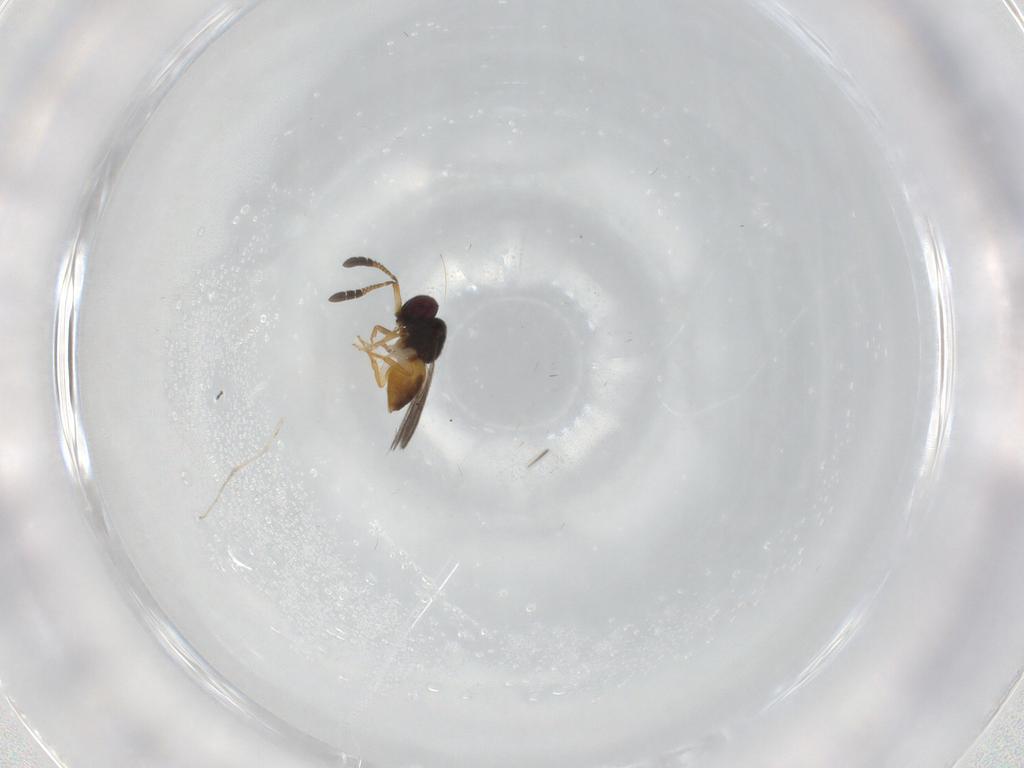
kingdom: Animalia
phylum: Arthropoda
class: Insecta
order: Hymenoptera
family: Ceraphronidae
